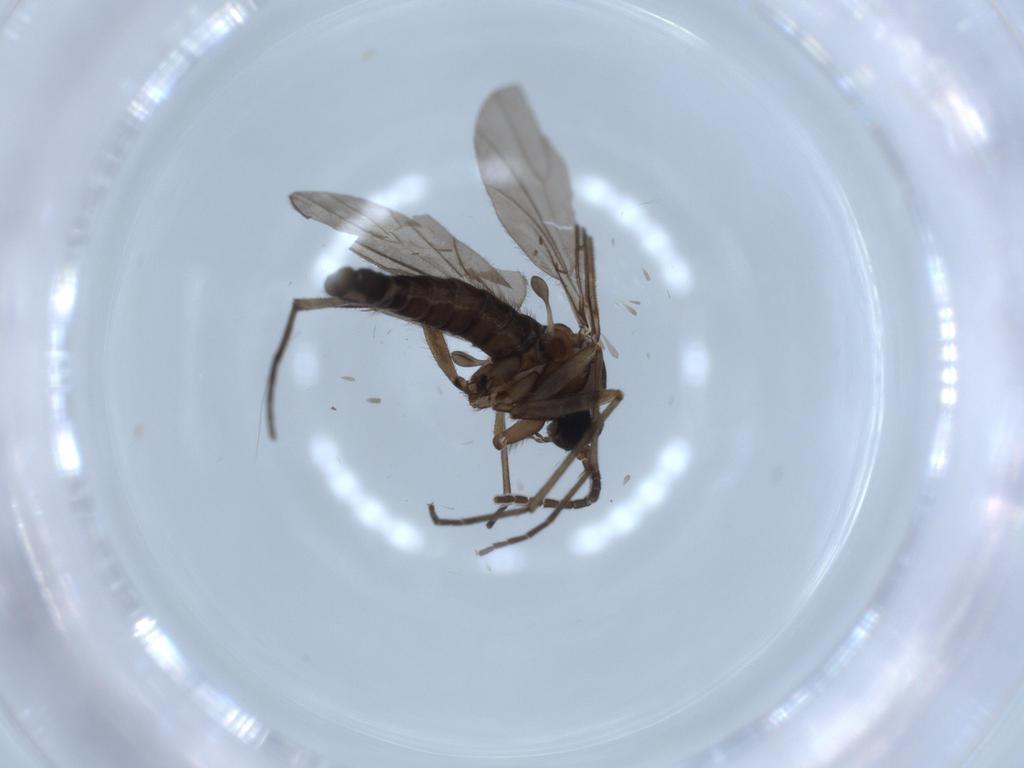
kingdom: Animalia
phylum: Arthropoda
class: Insecta
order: Diptera
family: Sciaridae
